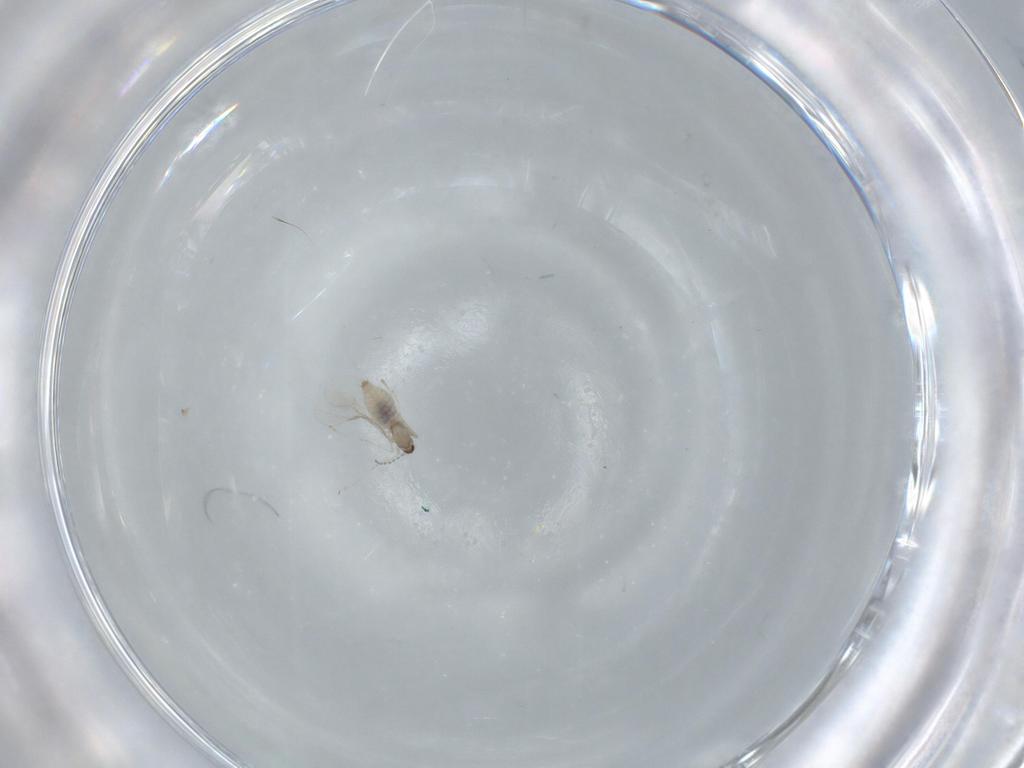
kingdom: Animalia
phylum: Arthropoda
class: Insecta
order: Diptera
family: Cecidomyiidae
